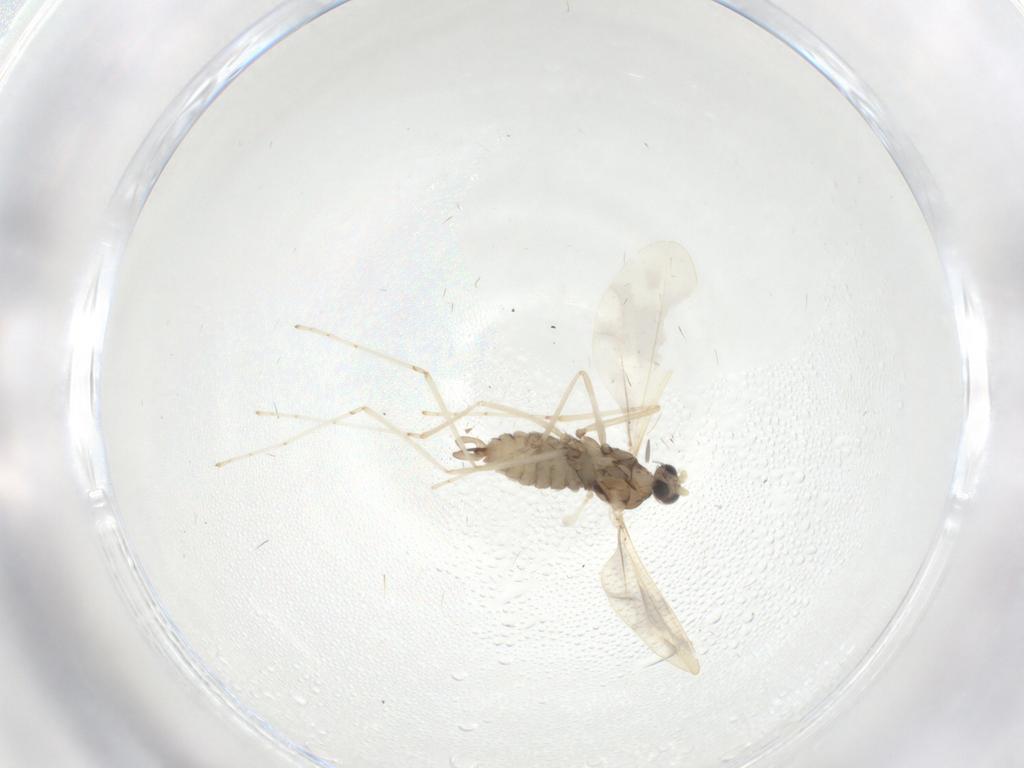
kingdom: Animalia
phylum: Arthropoda
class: Insecta
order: Diptera
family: Cecidomyiidae
